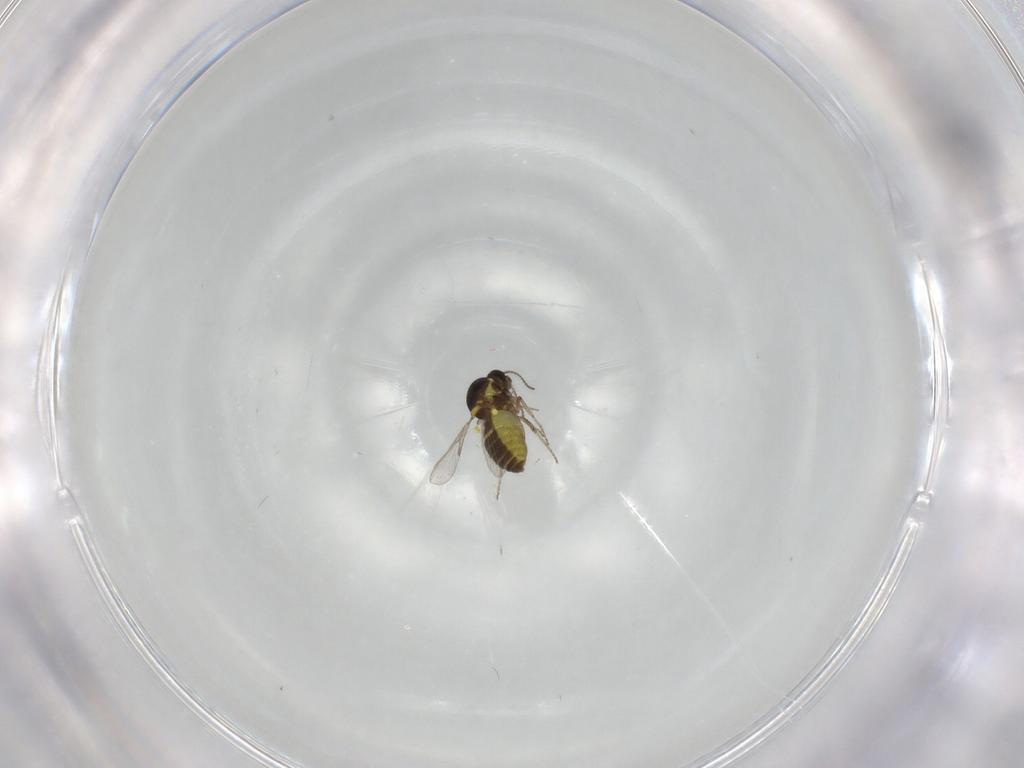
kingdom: Animalia
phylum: Arthropoda
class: Insecta
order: Diptera
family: Ceratopogonidae
